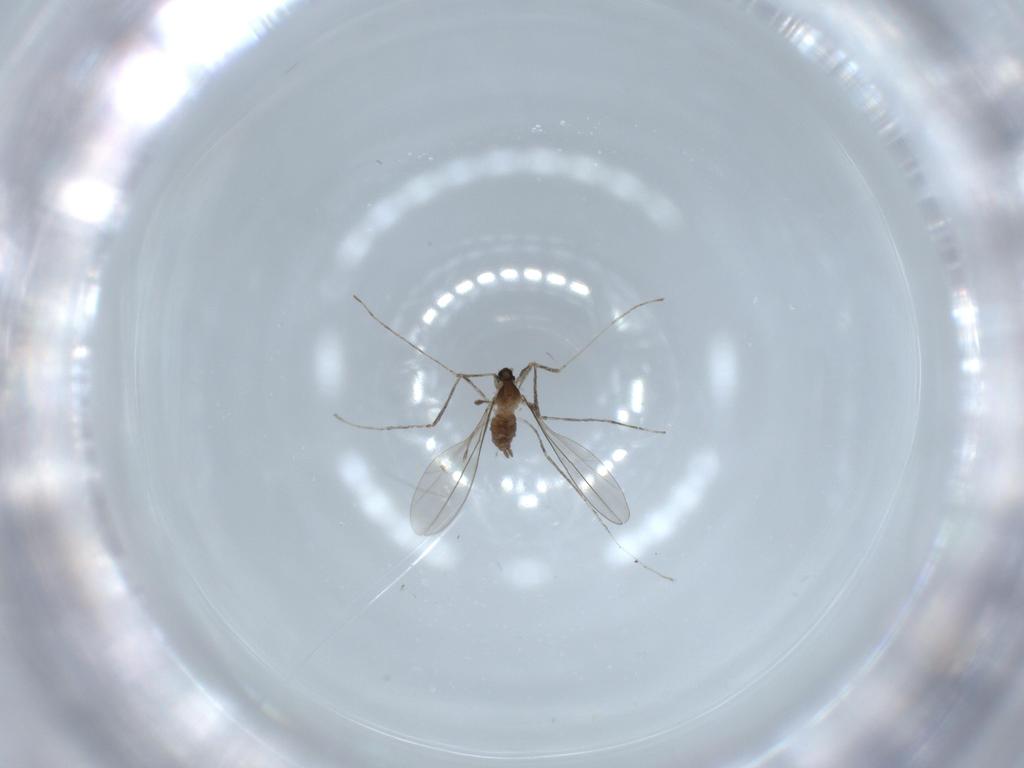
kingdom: Animalia
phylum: Arthropoda
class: Insecta
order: Diptera
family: Cecidomyiidae
